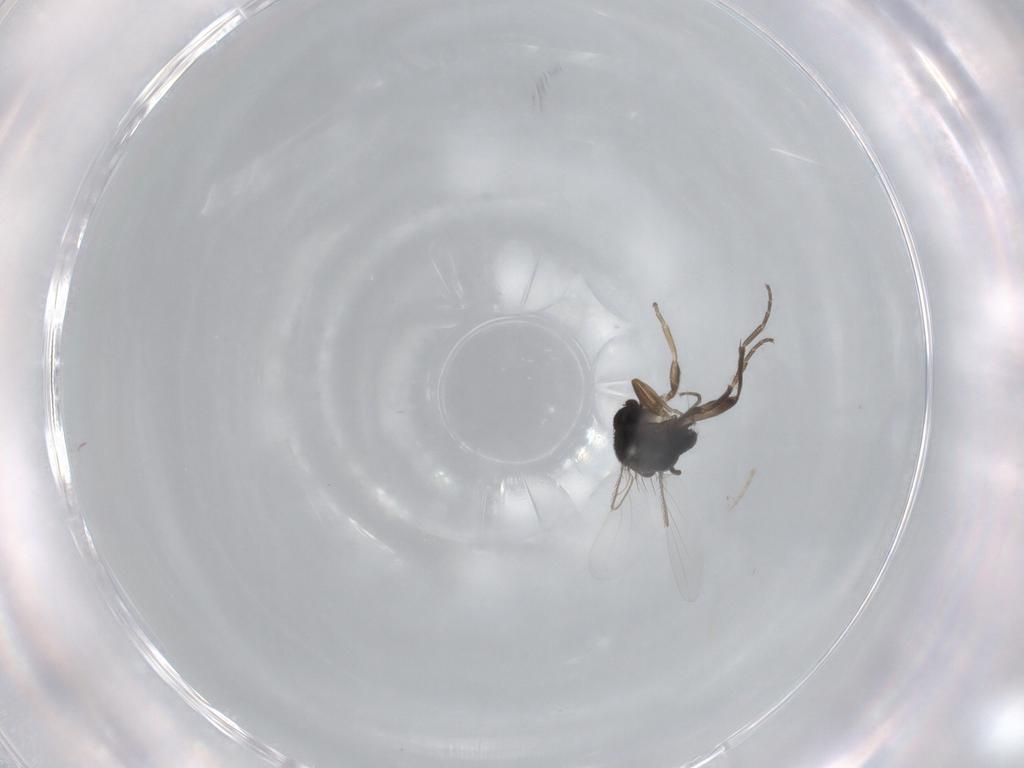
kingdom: Animalia
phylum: Arthropoda
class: Insecta
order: Diptera
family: Phoridae
